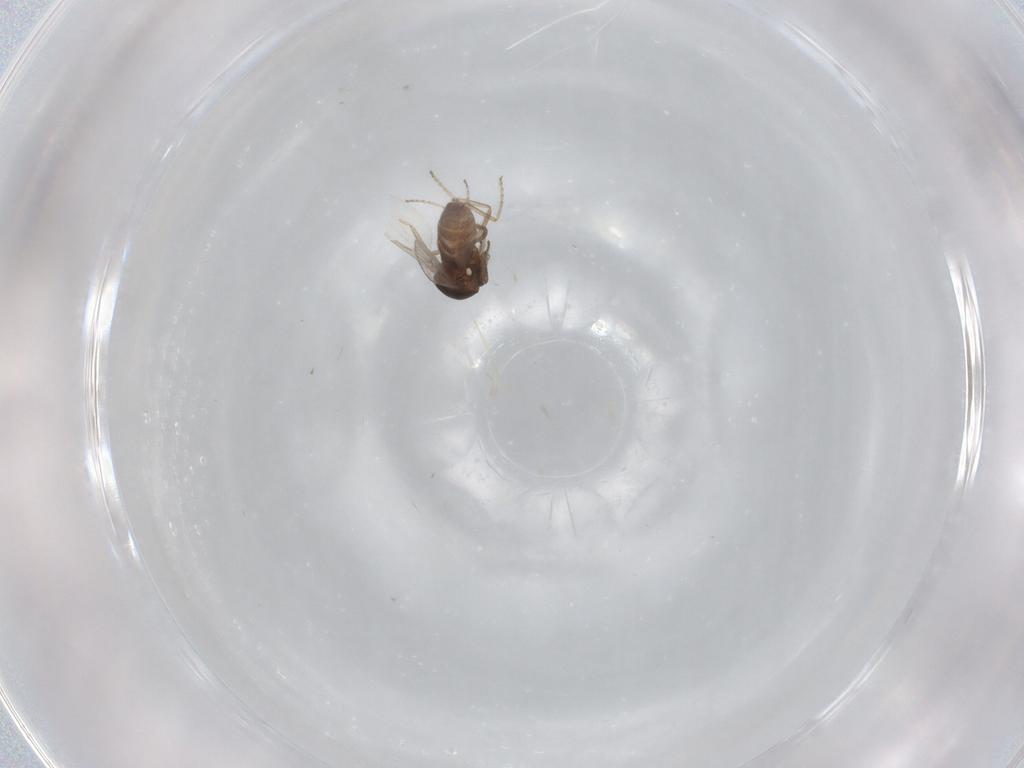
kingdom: Animalia
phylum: Arthropoda
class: Insecta
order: Diptera
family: Ceratopogonidae
